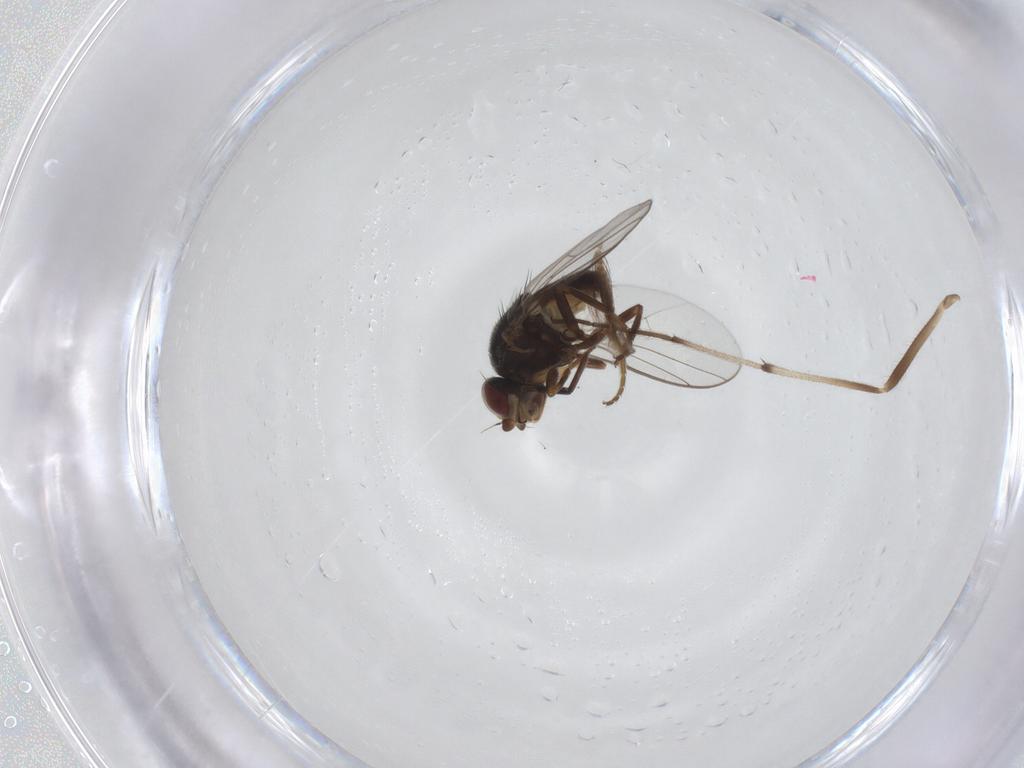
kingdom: Animalia
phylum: Arthropoda
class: Insecta
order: Diptera
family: Chloropidae
